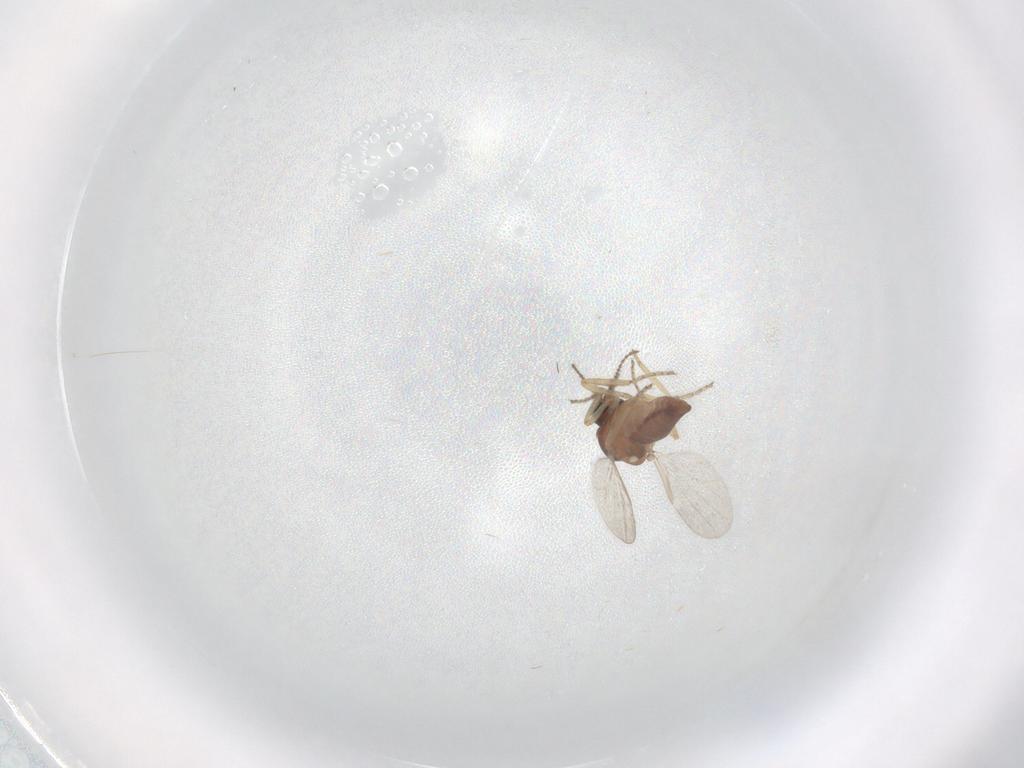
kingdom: Animalia
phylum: Arthropoda
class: Insecta
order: Diptera
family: Ceratopogonidae
